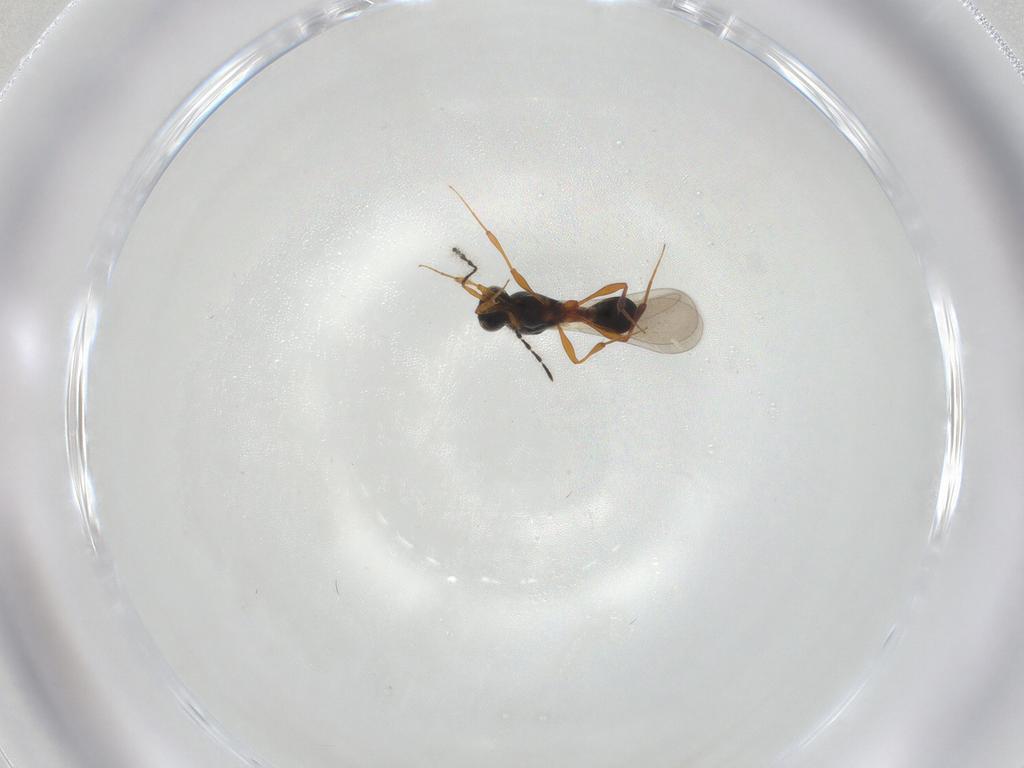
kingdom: Animalia
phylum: Arthropoda
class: Insecta
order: Hymenoptera
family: Platygastridae
